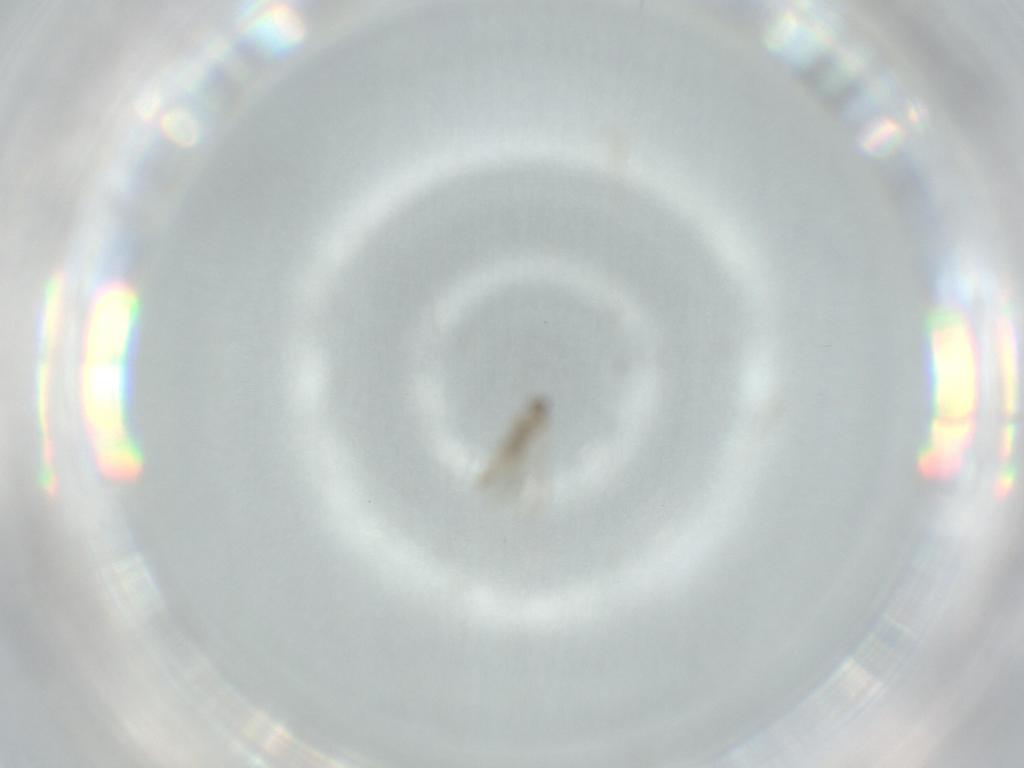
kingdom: Animalia
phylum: Arthropoda
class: Insecta
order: Diptera
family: Cecidomyiidae
